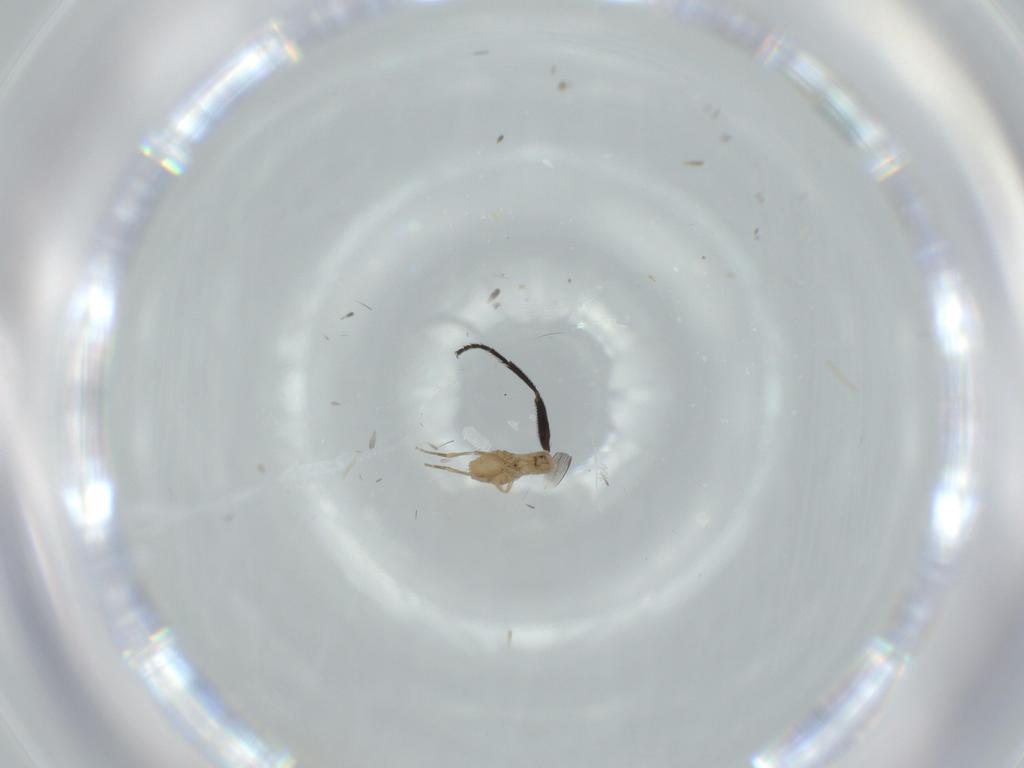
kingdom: Animalia
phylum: Arthropoda
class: Insecta
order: Diptera
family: Milichiidae
